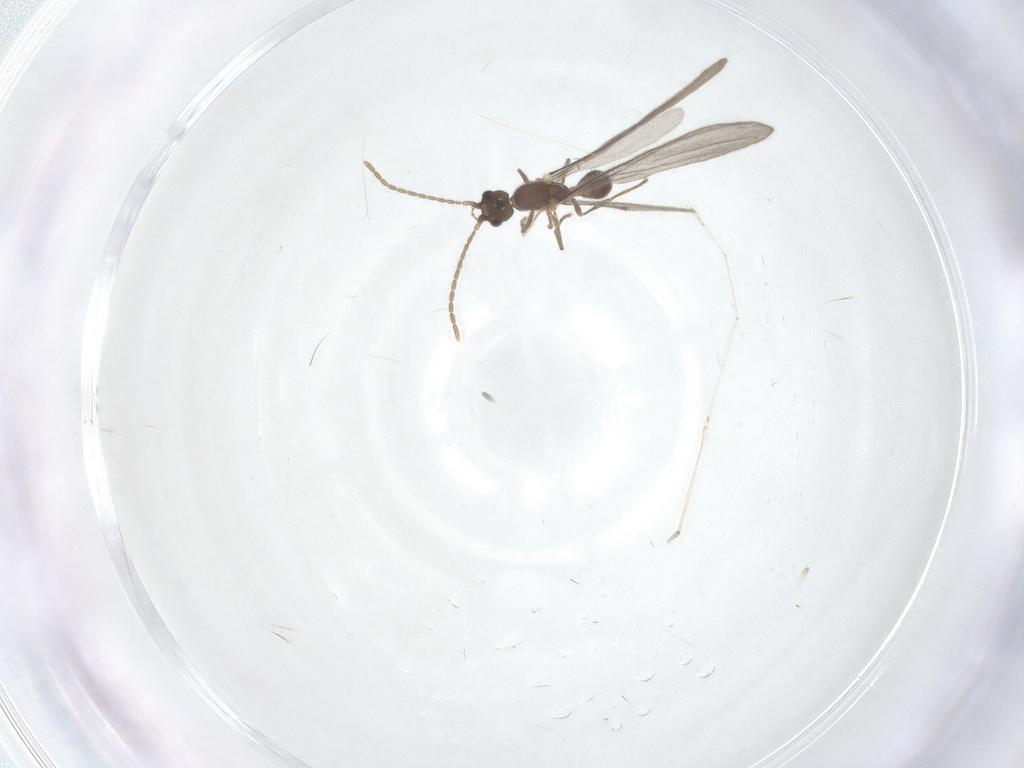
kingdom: Animalia
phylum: Arthropoda
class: Insecta
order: Hymenoptera
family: Formicidae
